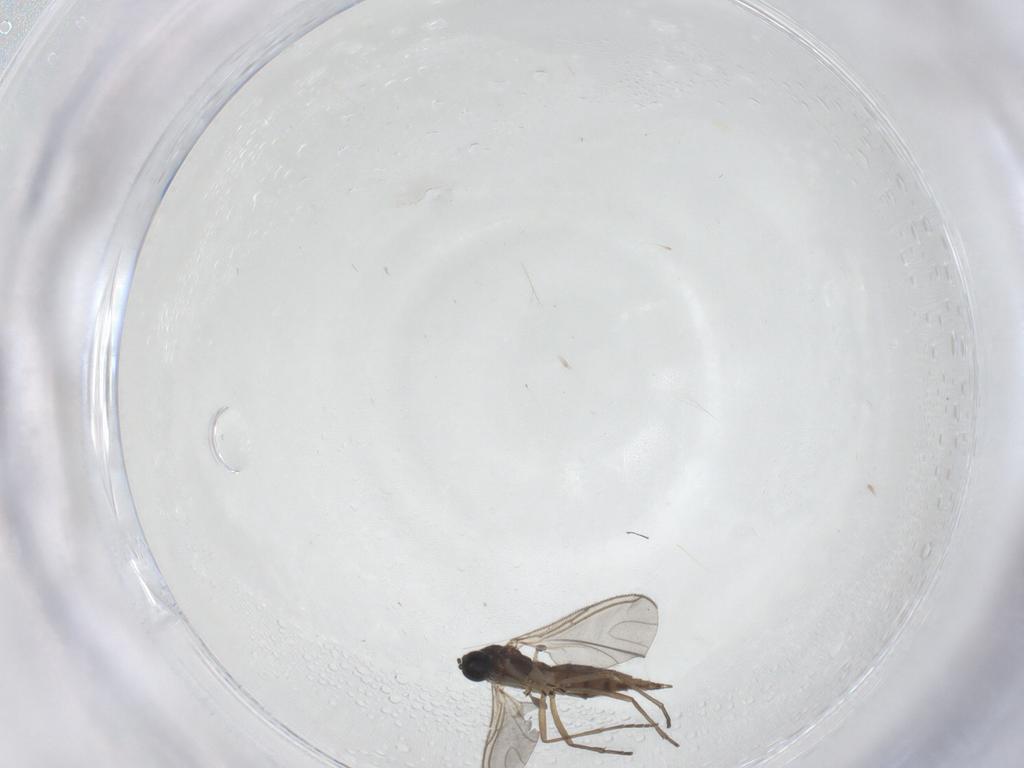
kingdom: Animalia
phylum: Arthropoda
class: Insecta
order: Diptera
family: Sciaridae
